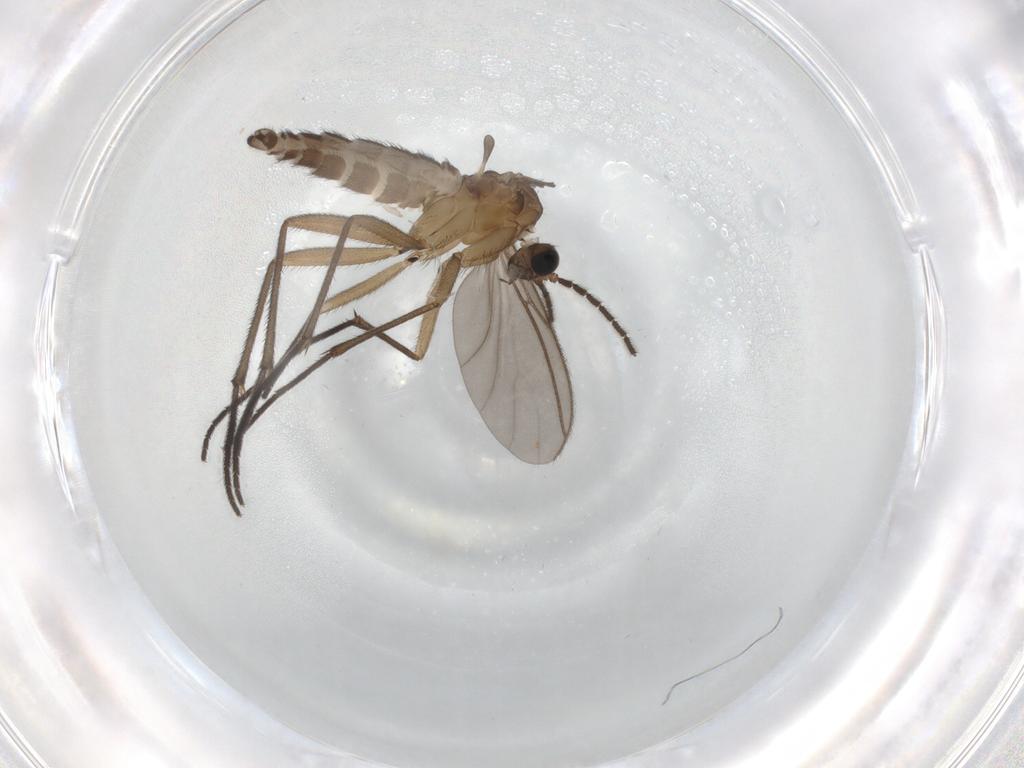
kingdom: Animalia
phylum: Arthropoda
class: Insecta
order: Diptera
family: Sciaridae
